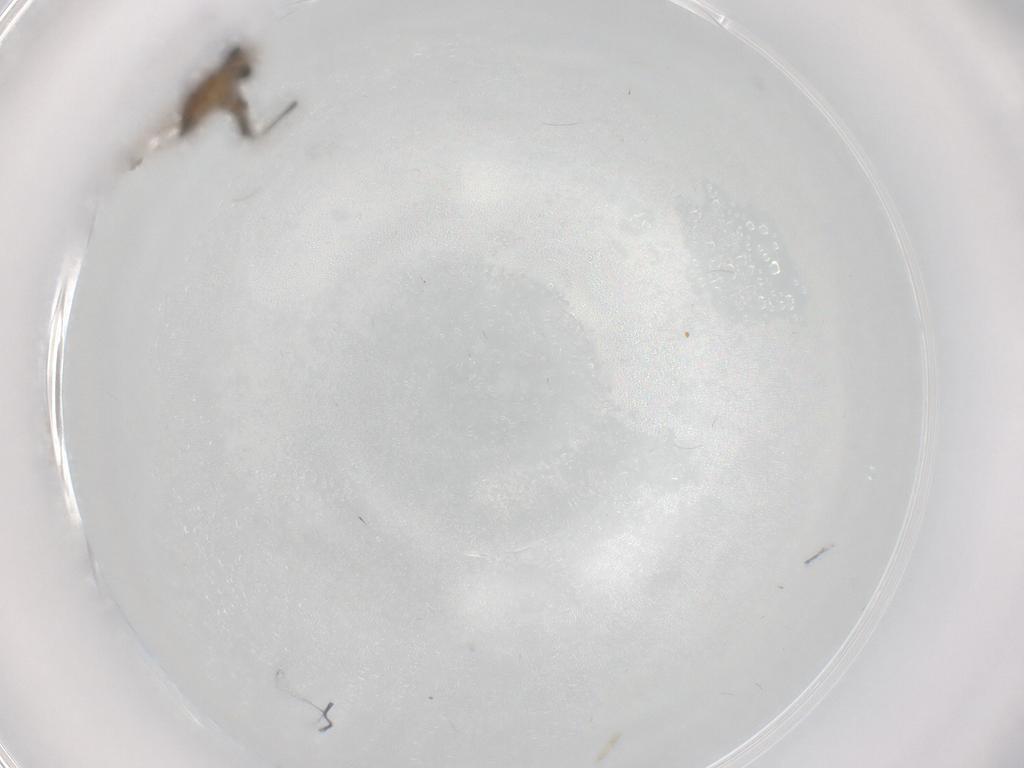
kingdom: Animalia
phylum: Arthropoda
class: Insecta
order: Diptera
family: Chironomidae
